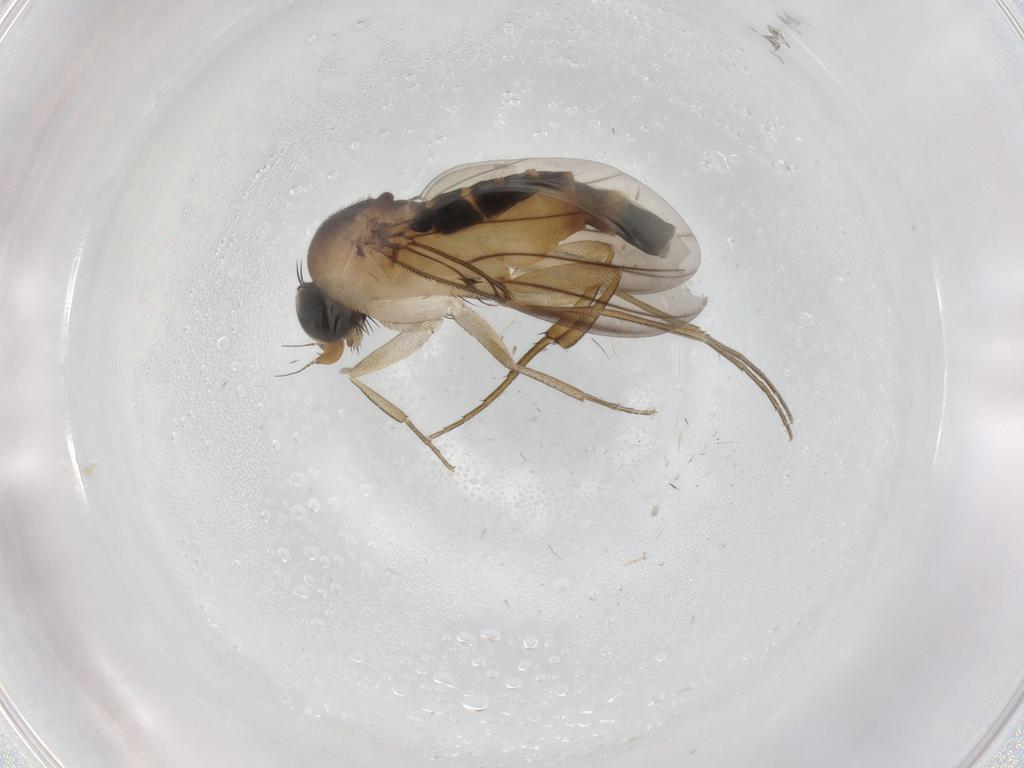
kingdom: Animalia
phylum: Arthropoda
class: Insecta
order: Diptera
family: Phoridae
